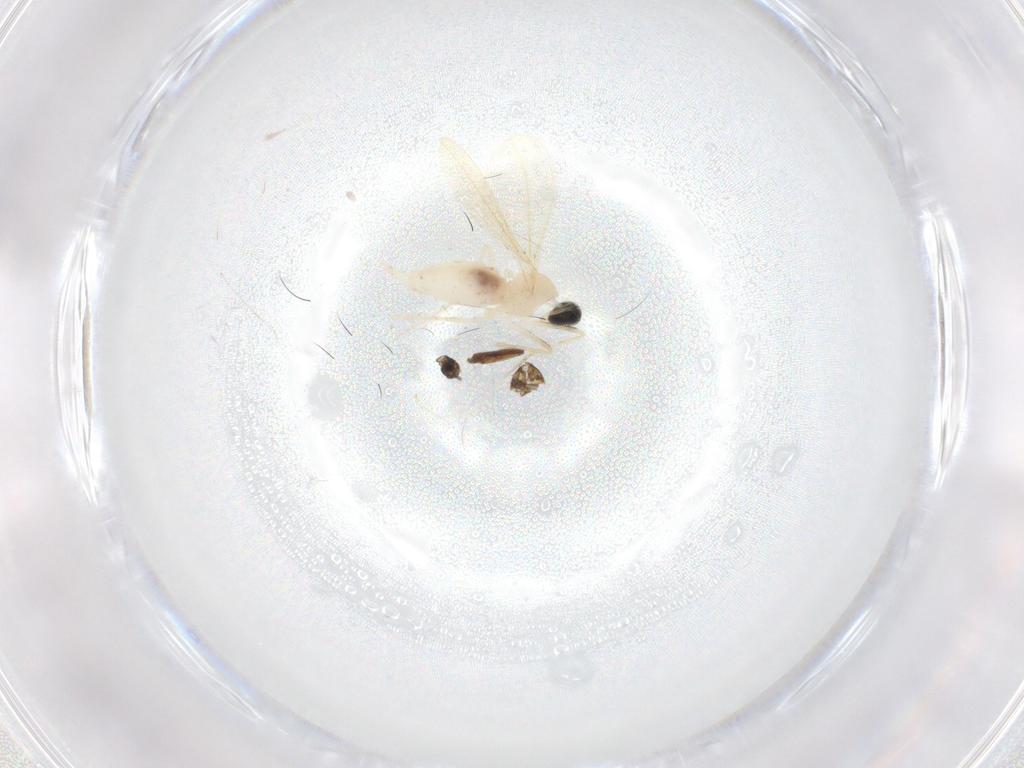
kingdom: Animalia
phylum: Arthropoda
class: Insecta
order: Diptera
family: Cecidomyiidae
